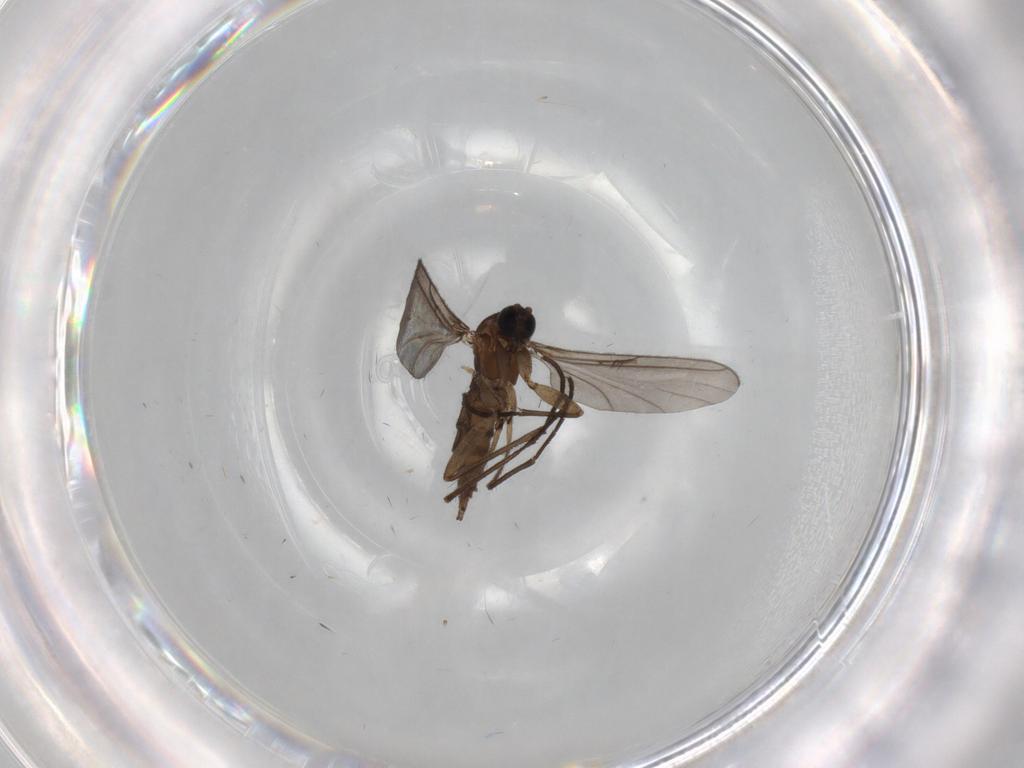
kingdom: Animalia
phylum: Arthropoda
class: Insecta
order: Diptera
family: Sciaridae
